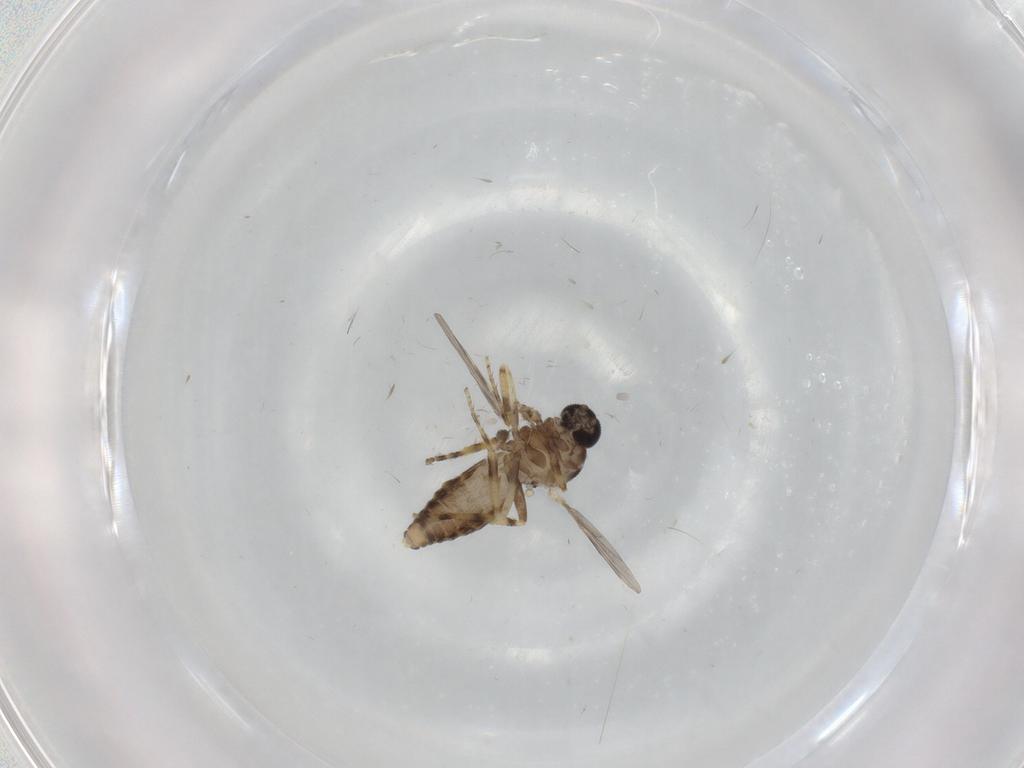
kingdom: Animalia
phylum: Arthropoda
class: Insecta
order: Diptera
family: Ceratopogonidae
